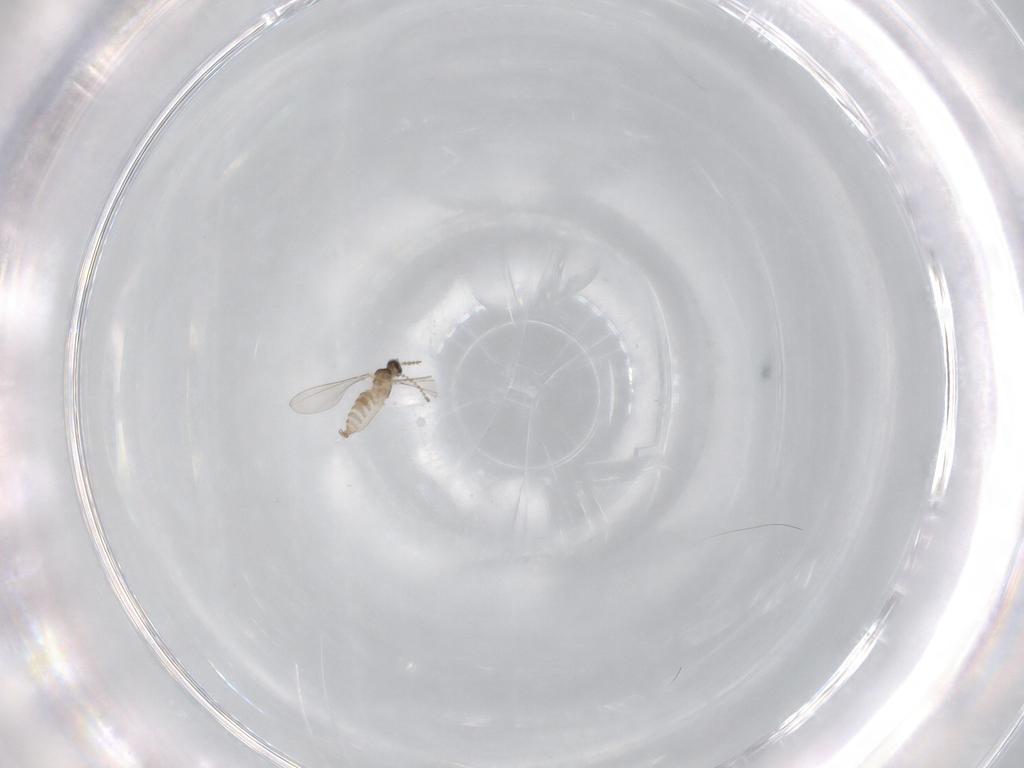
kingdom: Animalia
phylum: Arthropoda
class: Insecta
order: Diptera
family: Cecidomyiidae
